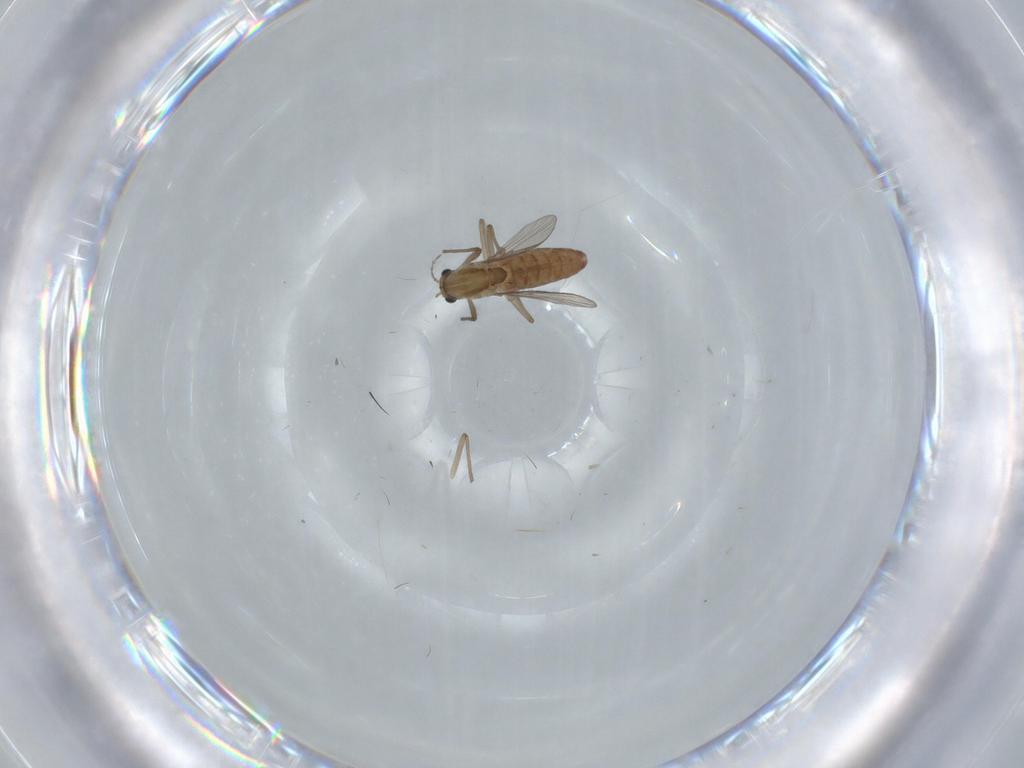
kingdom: Animalia
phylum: Arthropoda
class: Insecta
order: Diptera
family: Chironomidae
